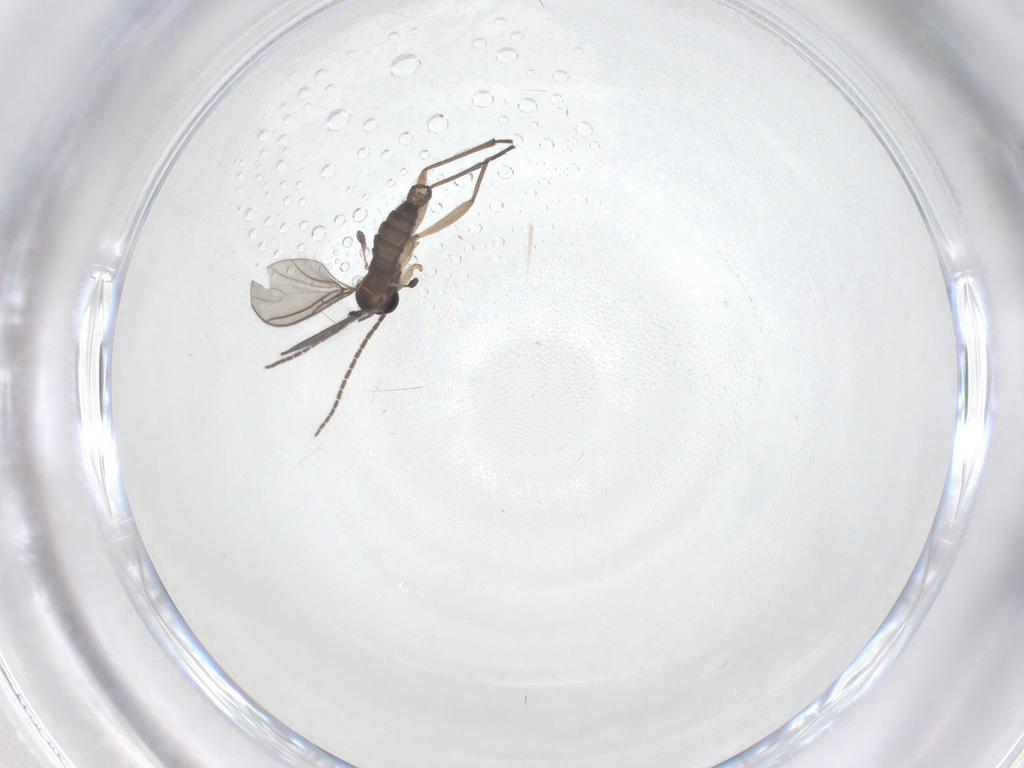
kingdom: Animalia
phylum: Arthropoda
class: Insecta
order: Diptera
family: Sciaridae
